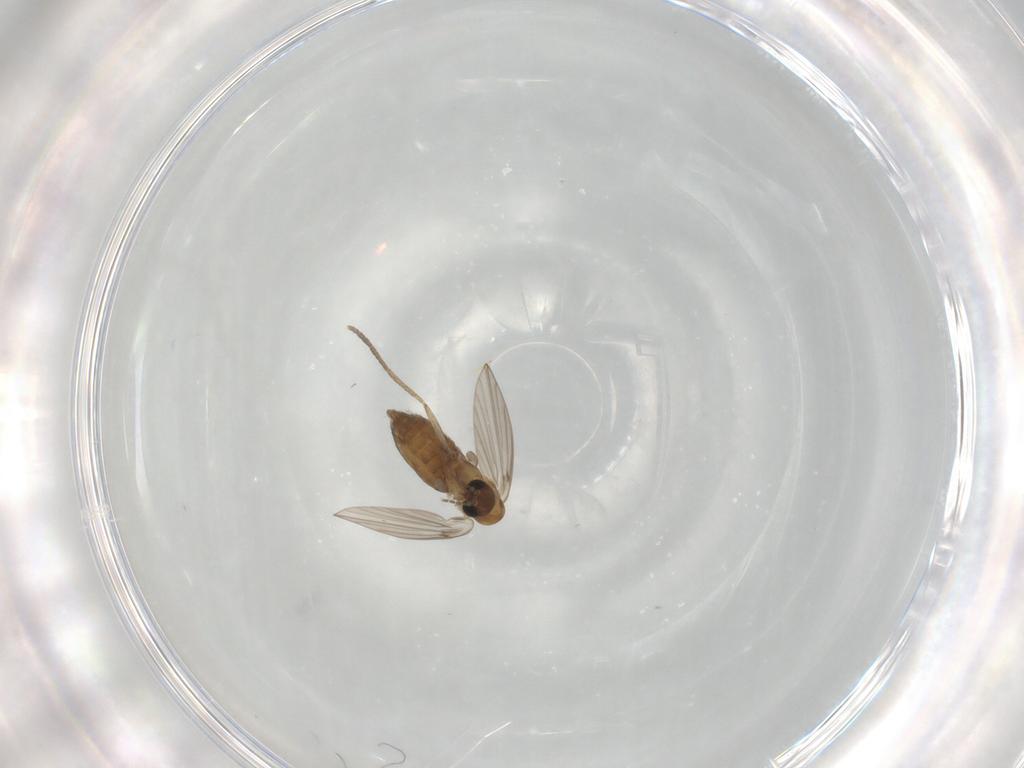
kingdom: Animalia
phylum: Arthropoda
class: Insecta
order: Diptera
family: Psychodidae
